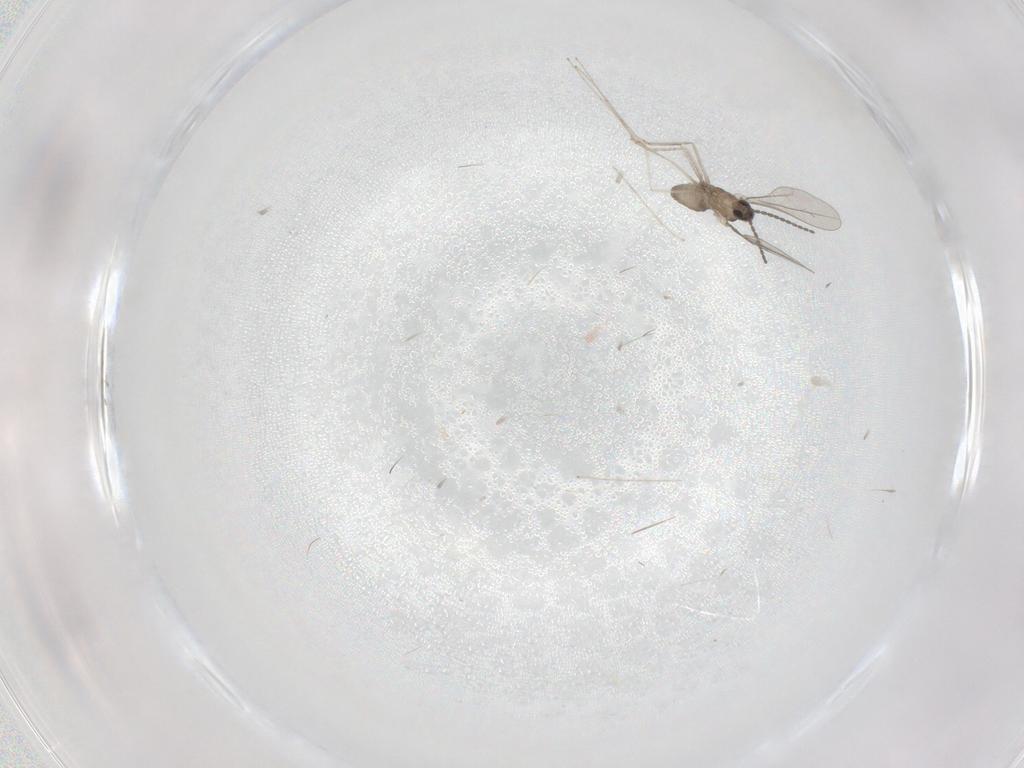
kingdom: Animalia
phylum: Arthropoda
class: Insecta
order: Diptera
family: Cecidomyiidae
